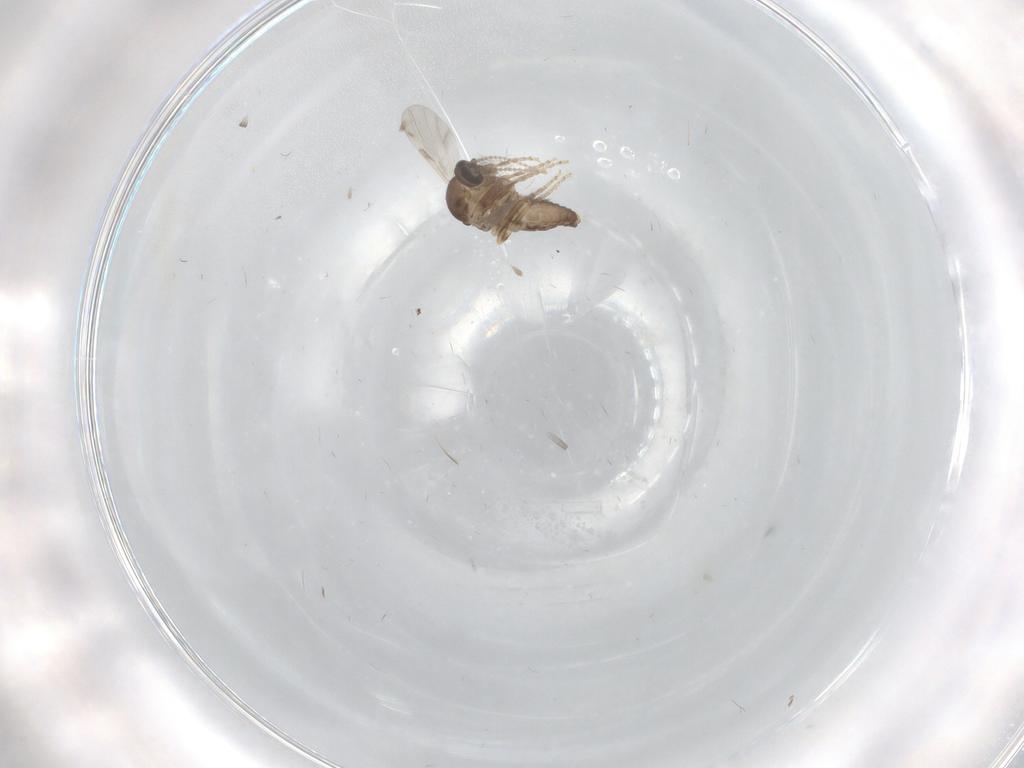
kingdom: Animalia
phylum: Arthropoda
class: Insecta
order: Diptera
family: Ceratopogonidae
